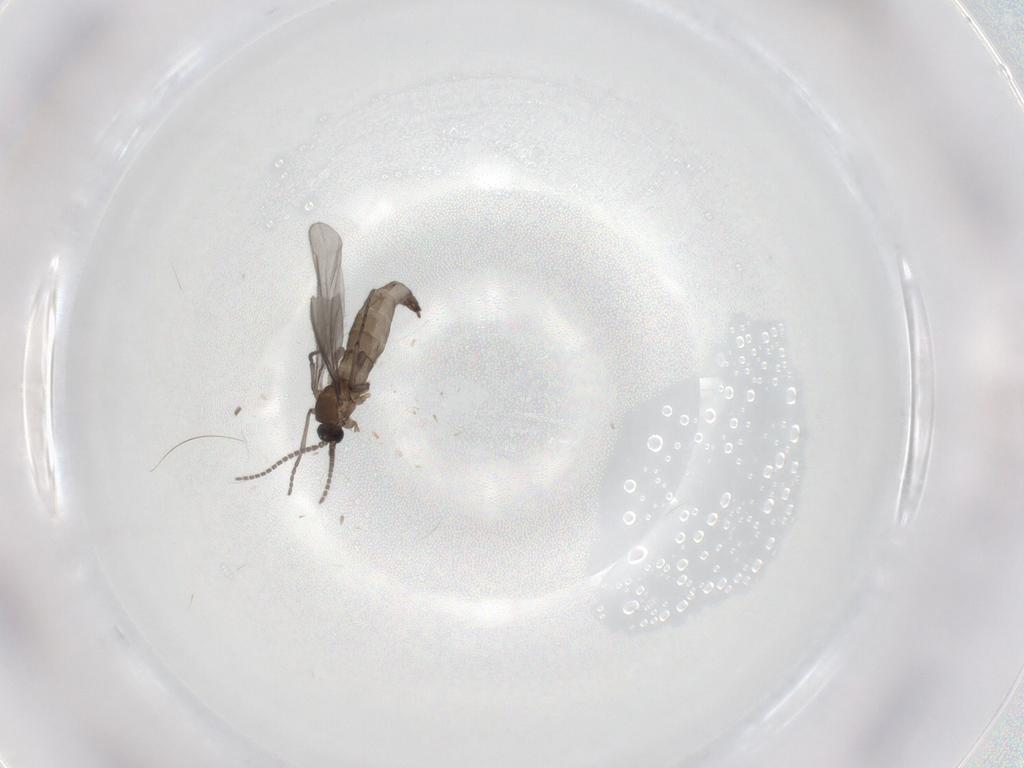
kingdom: Animalia
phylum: Arthropoda
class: Insecta
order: Diptera
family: Sciaridae
